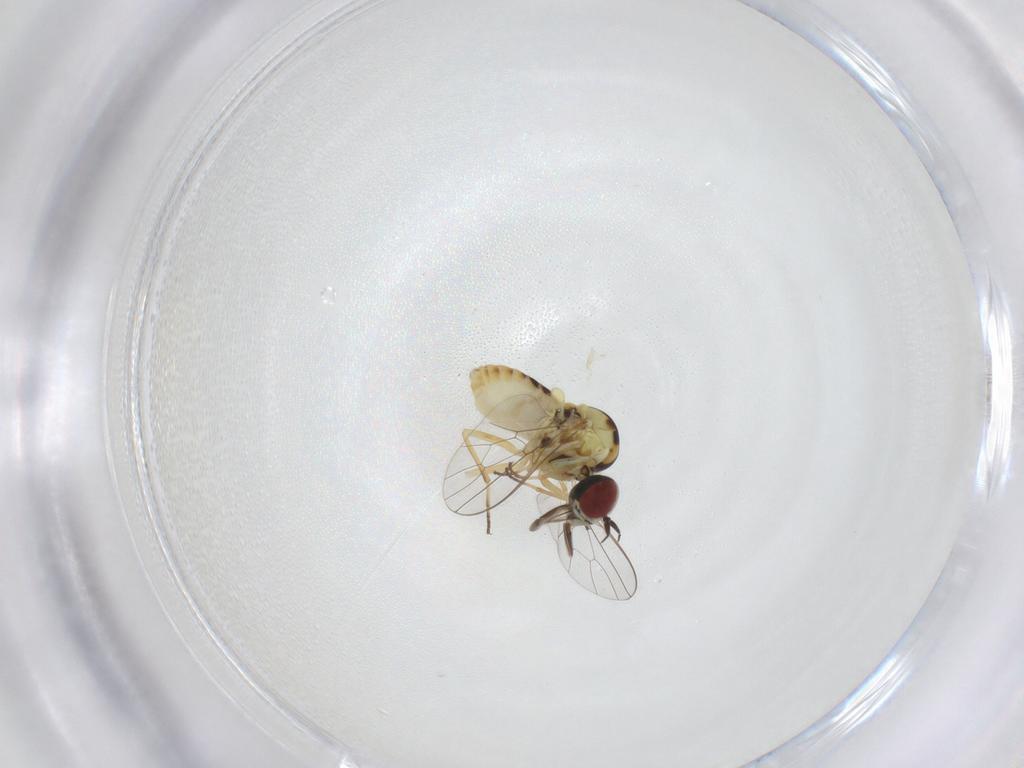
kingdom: Animalia
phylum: Arthropoda
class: Insecta
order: Diptera
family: Mythicomyiidae
